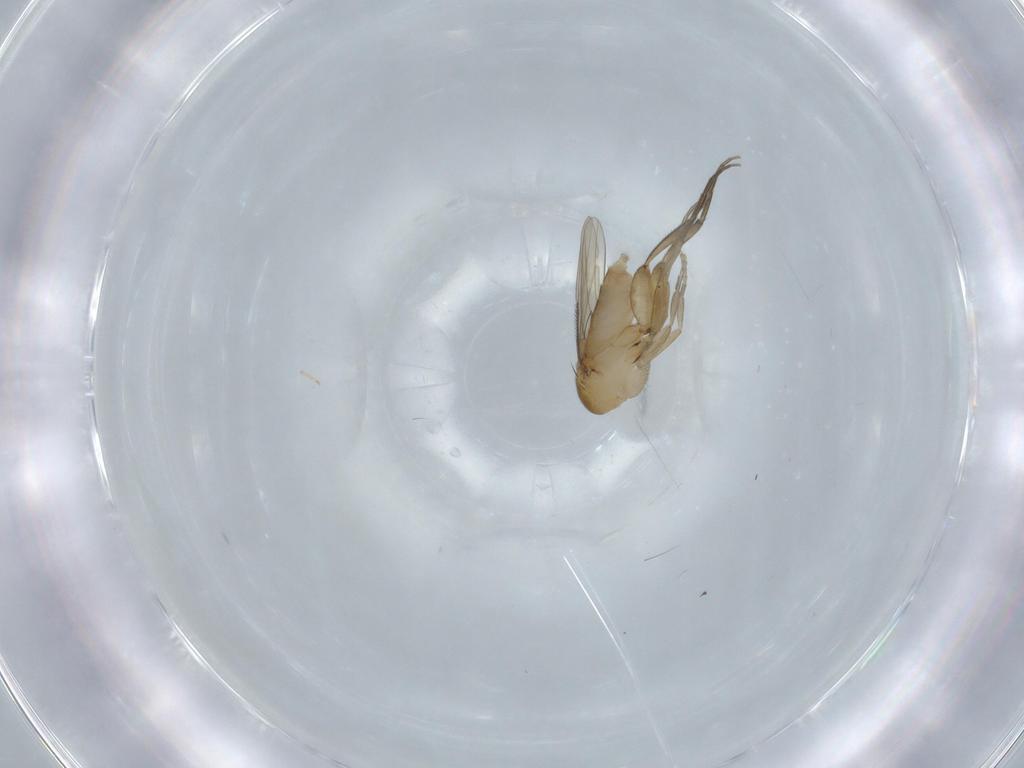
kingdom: Animalia
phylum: Arthropoda
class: Insecta
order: Diptera
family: Phoridae
